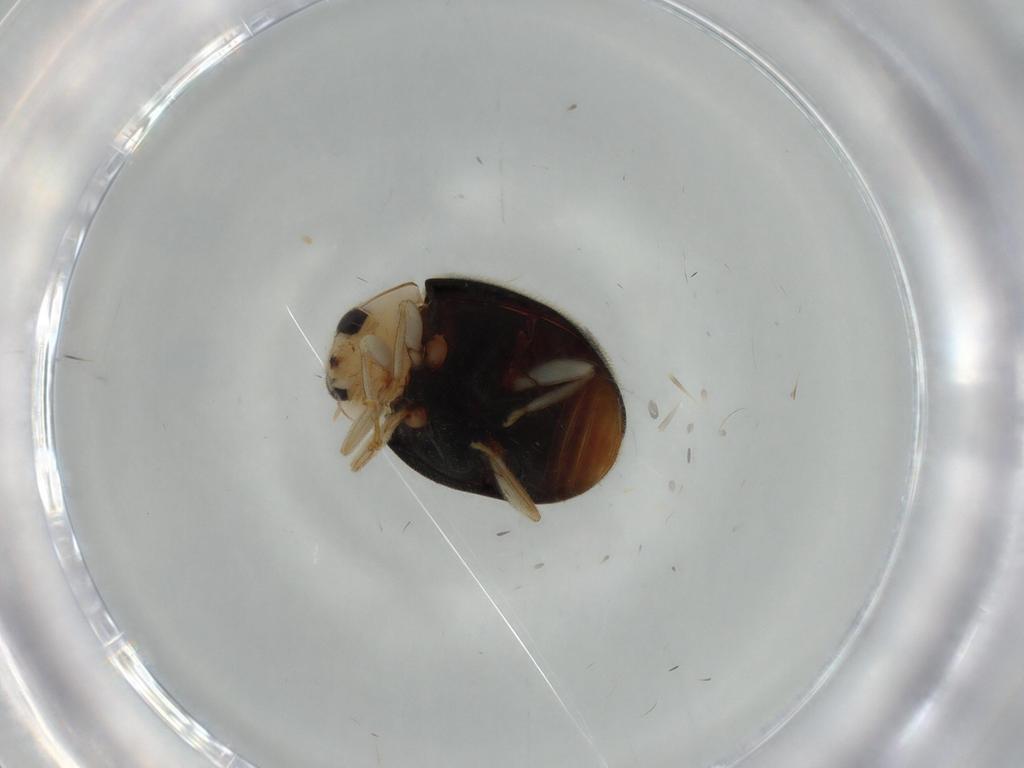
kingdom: Animalia
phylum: Arthropoda
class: Insecta
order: Coleoptera
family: Coccinellidae
